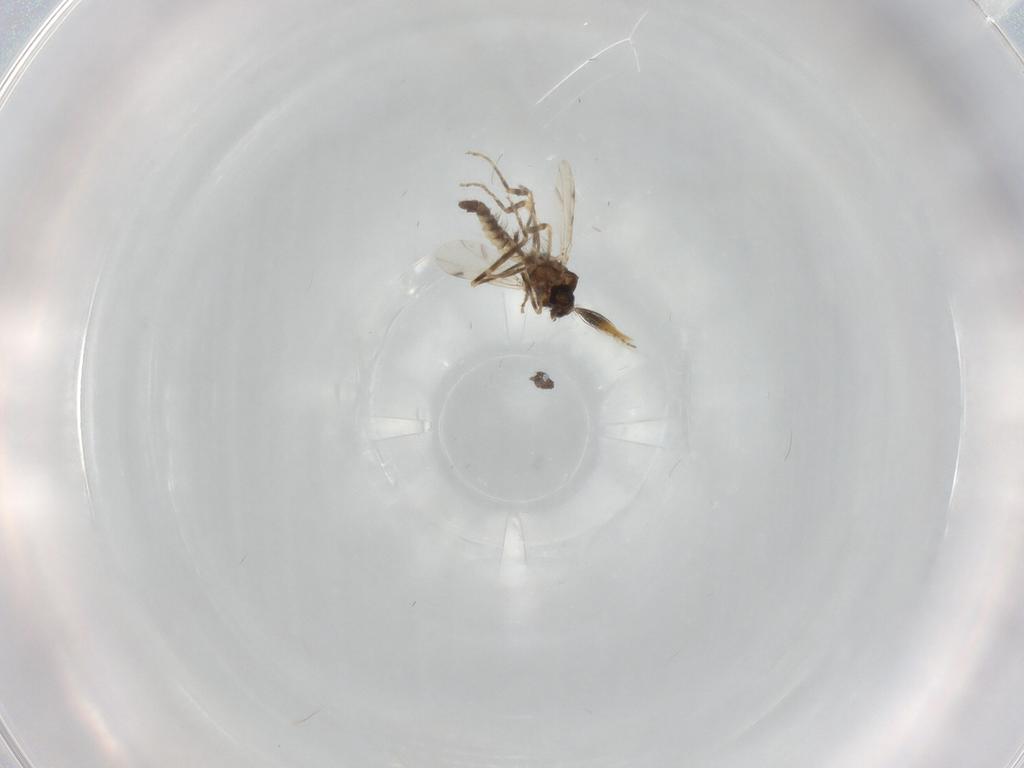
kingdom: Animalia
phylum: Arthropoda
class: Insecta
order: Diptera
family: Ceratopogonidae
